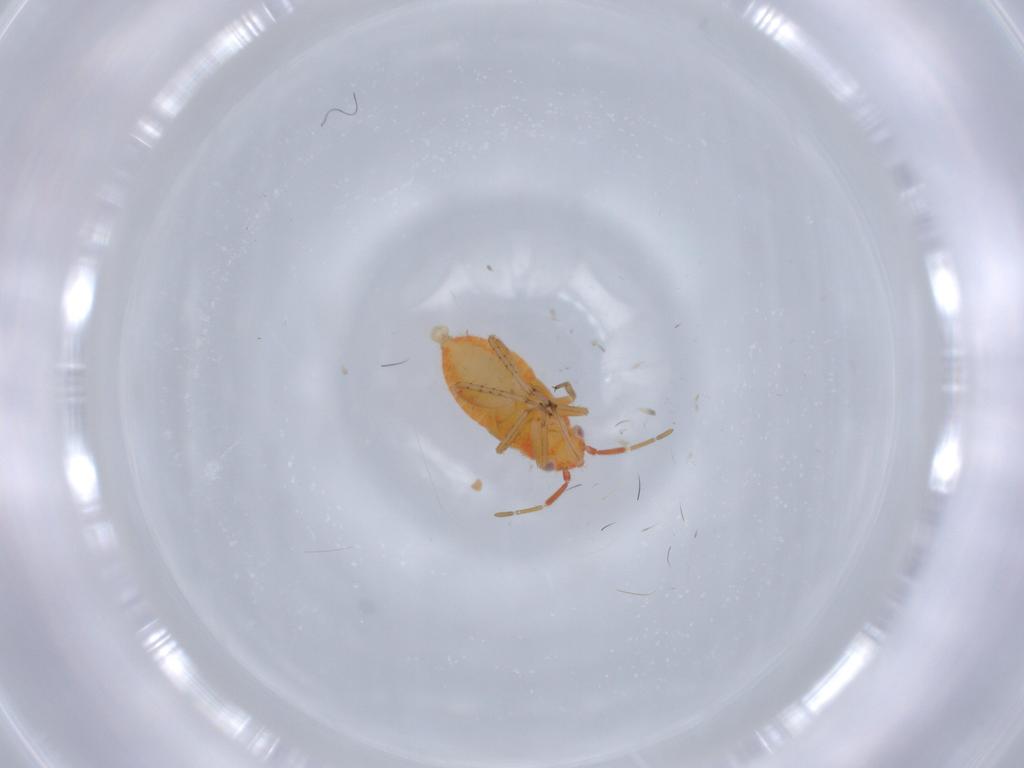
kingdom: Animalia
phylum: Arthropoda
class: Insecta
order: Hemiptera
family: Miridae
